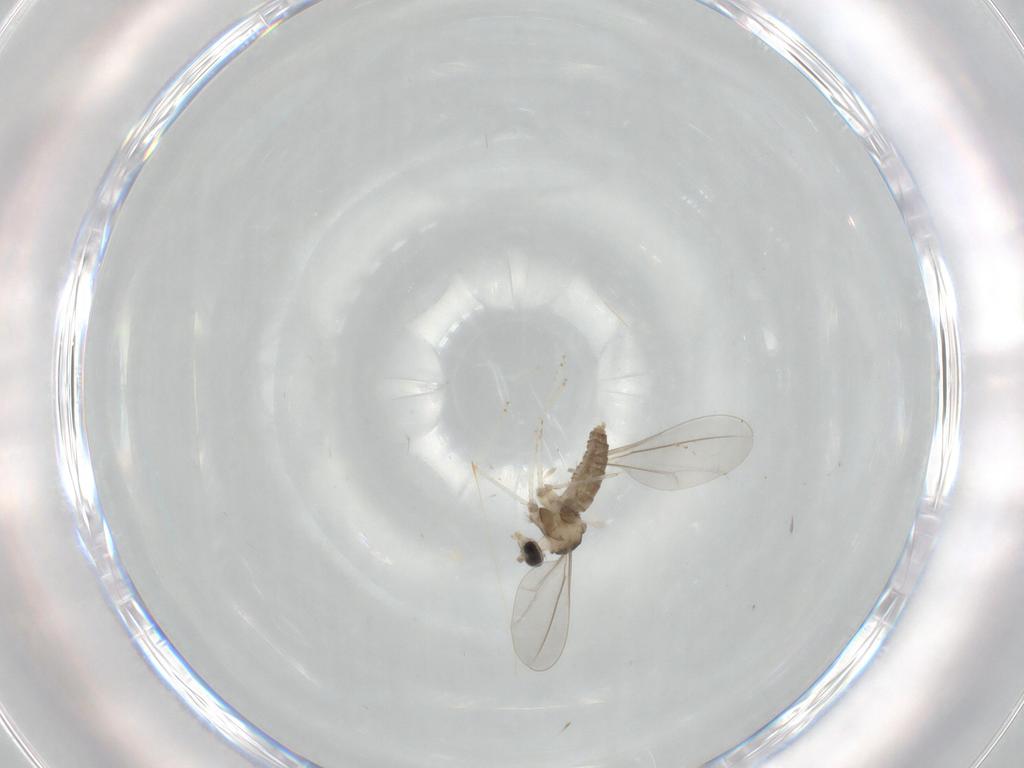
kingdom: Animalia
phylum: Arthropoda
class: Insecta
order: Diptera
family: Cecidomyiidae
